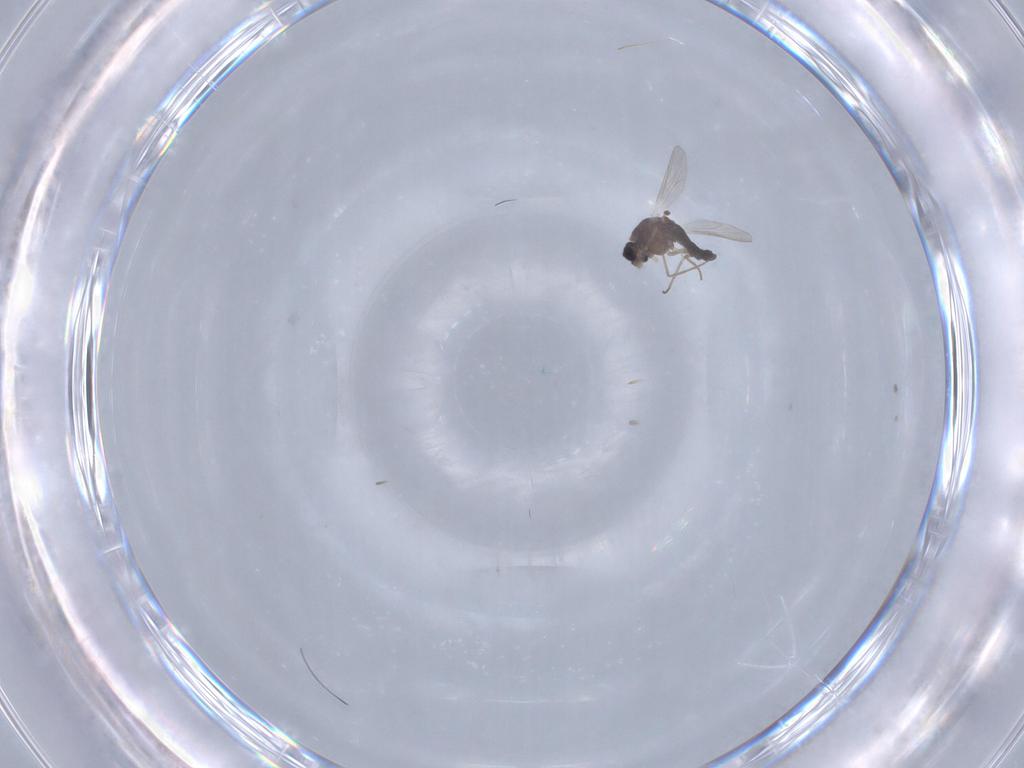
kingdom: Animalia
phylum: Arthropoda
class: Insecta
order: Diptera
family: Chironomidae
